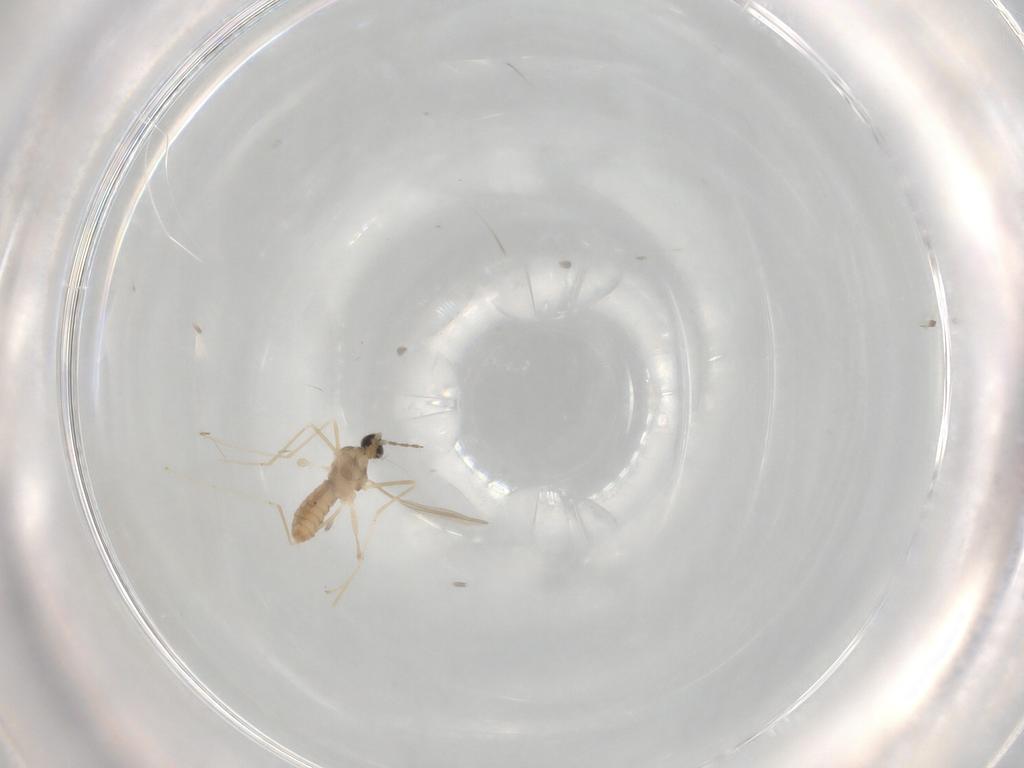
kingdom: Animalia
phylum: Arthropoda
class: Insecta
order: Diptera
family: Cecidomyiidae
